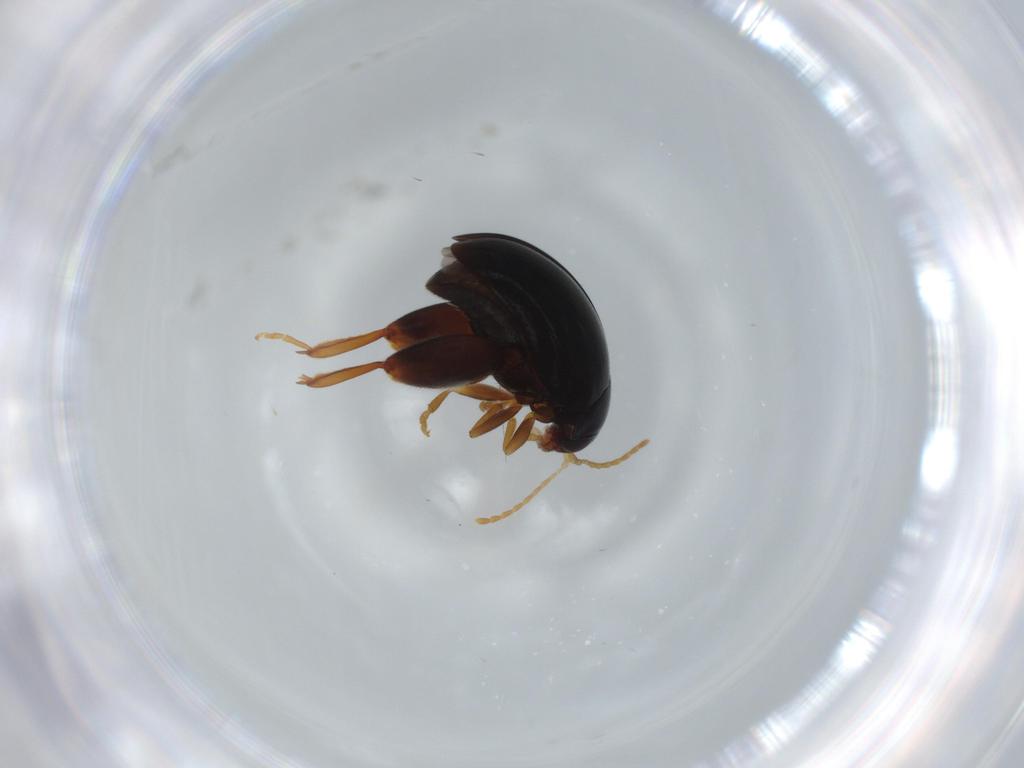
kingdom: Animalia
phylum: Arthropoda
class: Insecta
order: Coleoptera
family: Chrysomelidae
